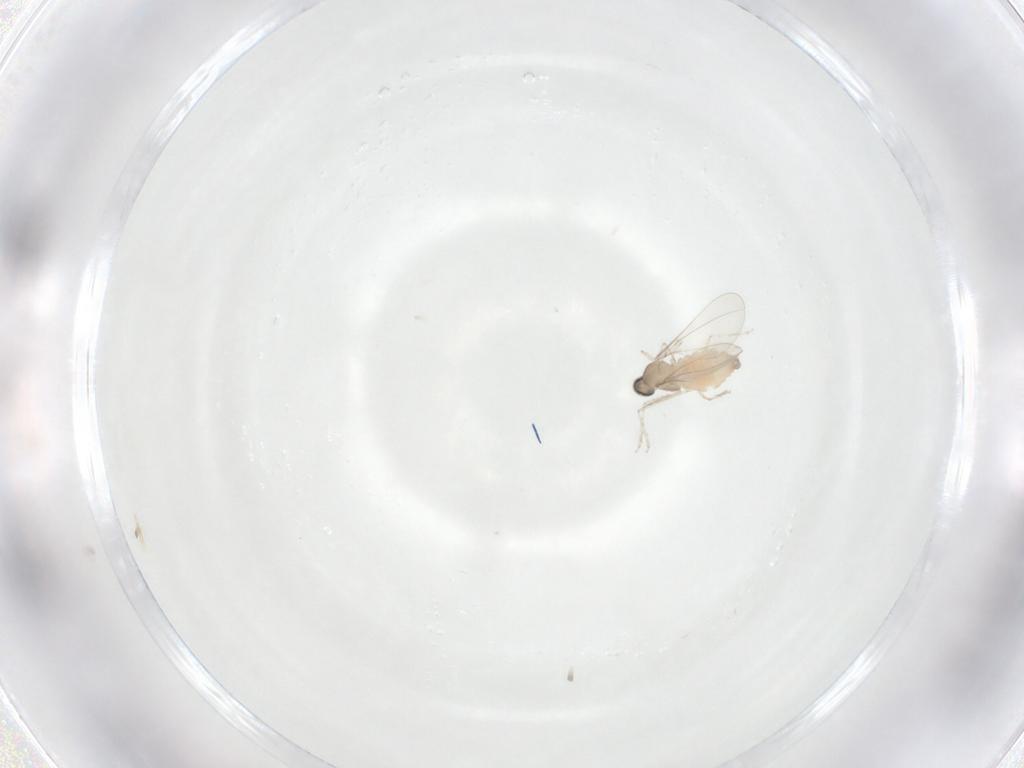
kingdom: Animalia
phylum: Arthropoda
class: Insecta
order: Diptera
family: Cecidomyiidae
